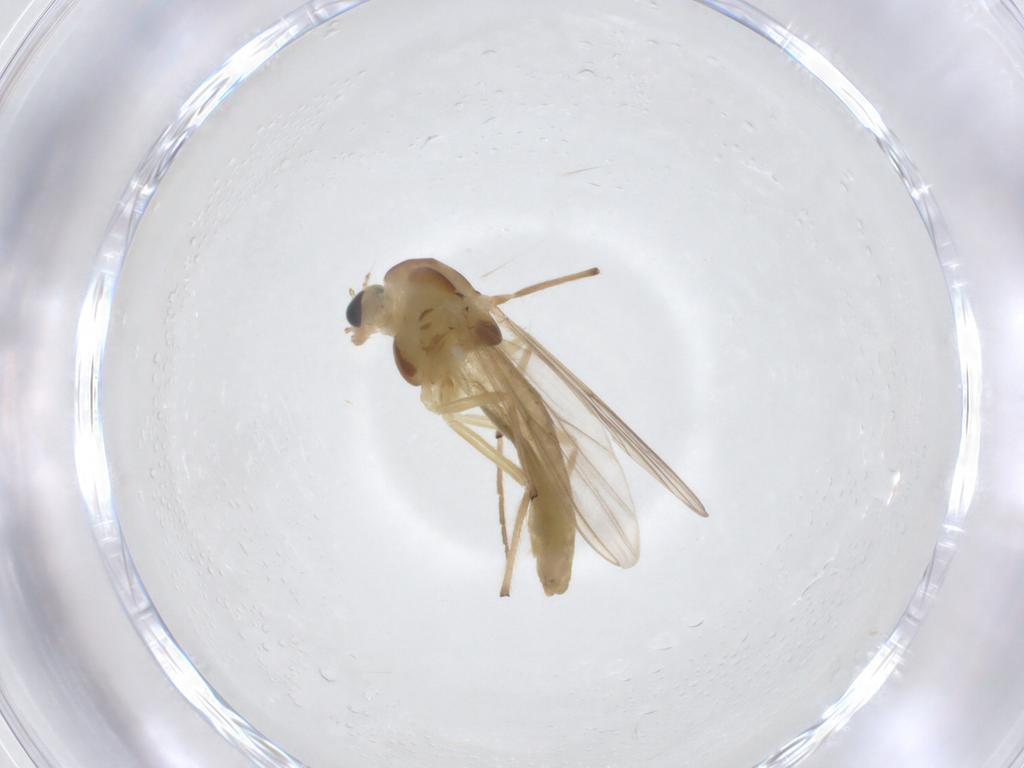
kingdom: Animalia
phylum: Arthropoda
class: Insecta
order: Diptera
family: Chironomidae
